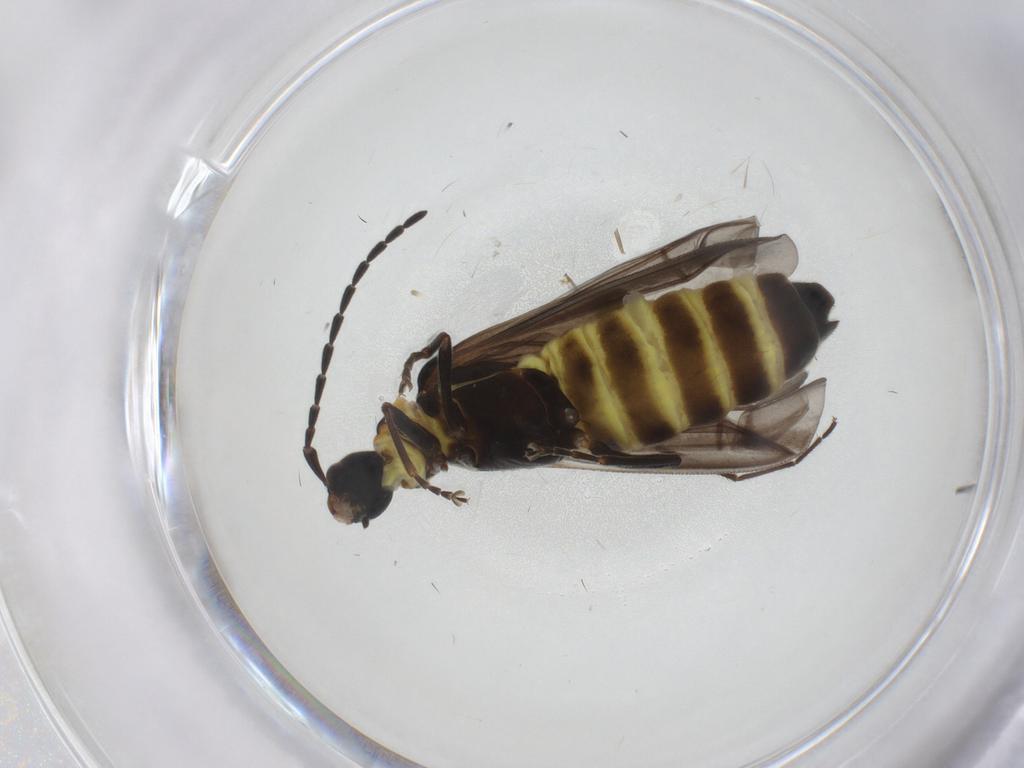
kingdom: Animalia
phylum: Arthropoda
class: Insecta
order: Coleoptera
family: Cantharidae
